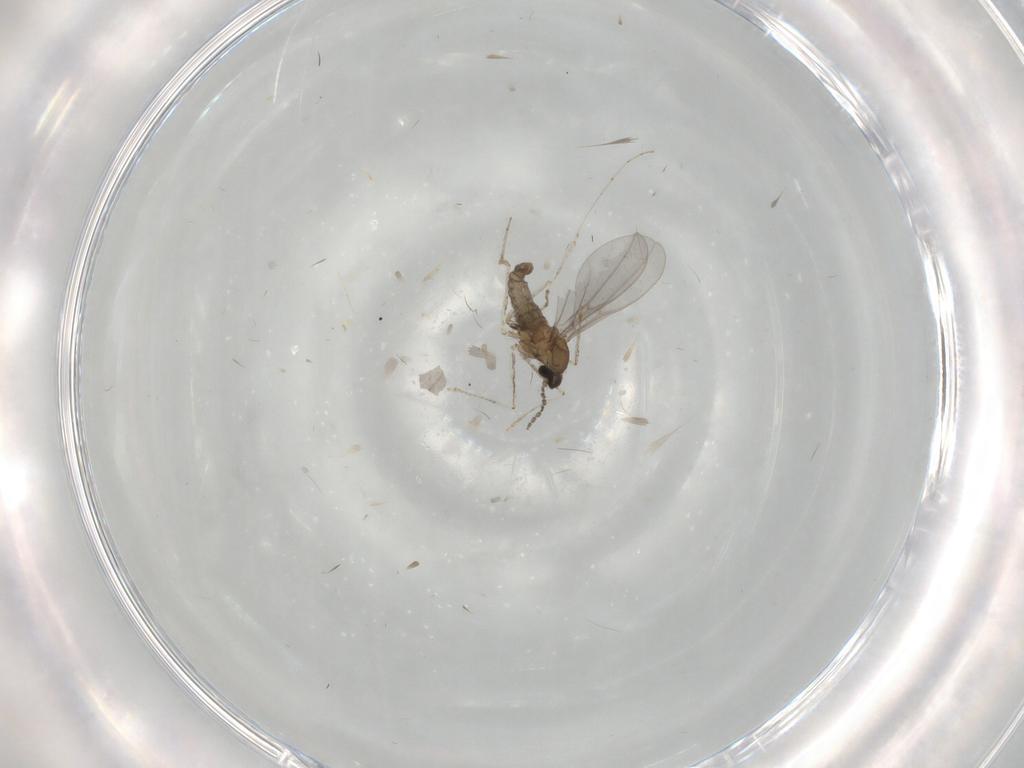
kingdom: Animalia
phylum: Arthropoda
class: Insecta
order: Diptera
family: Cecidomyiidae
